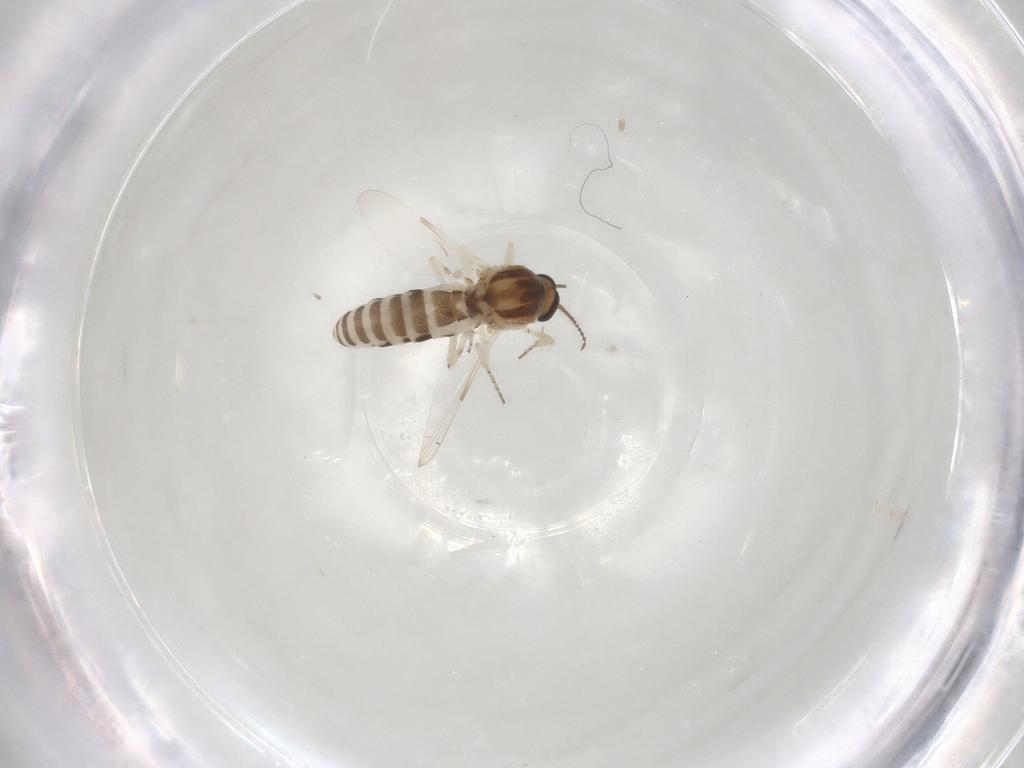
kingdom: Animalia
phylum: Arthropoda
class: Insecta
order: Diptera
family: Ceratopogonidae
